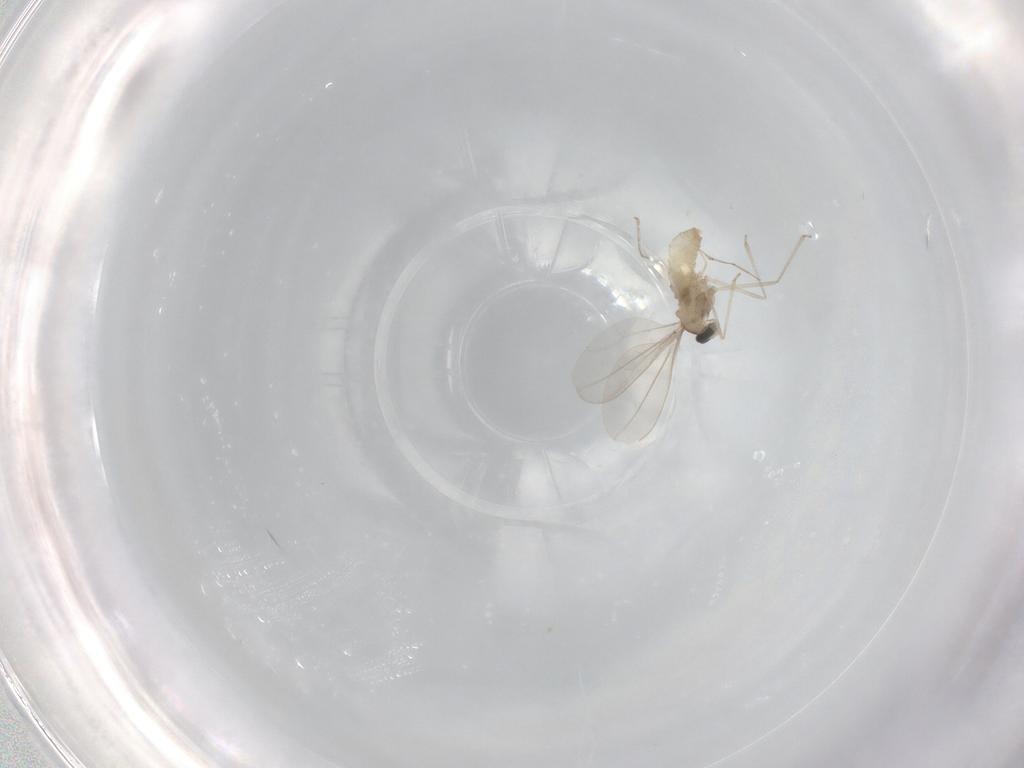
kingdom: Animalia
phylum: Arthropoda
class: Insecta
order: Diptera
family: Cecidomyiidae
